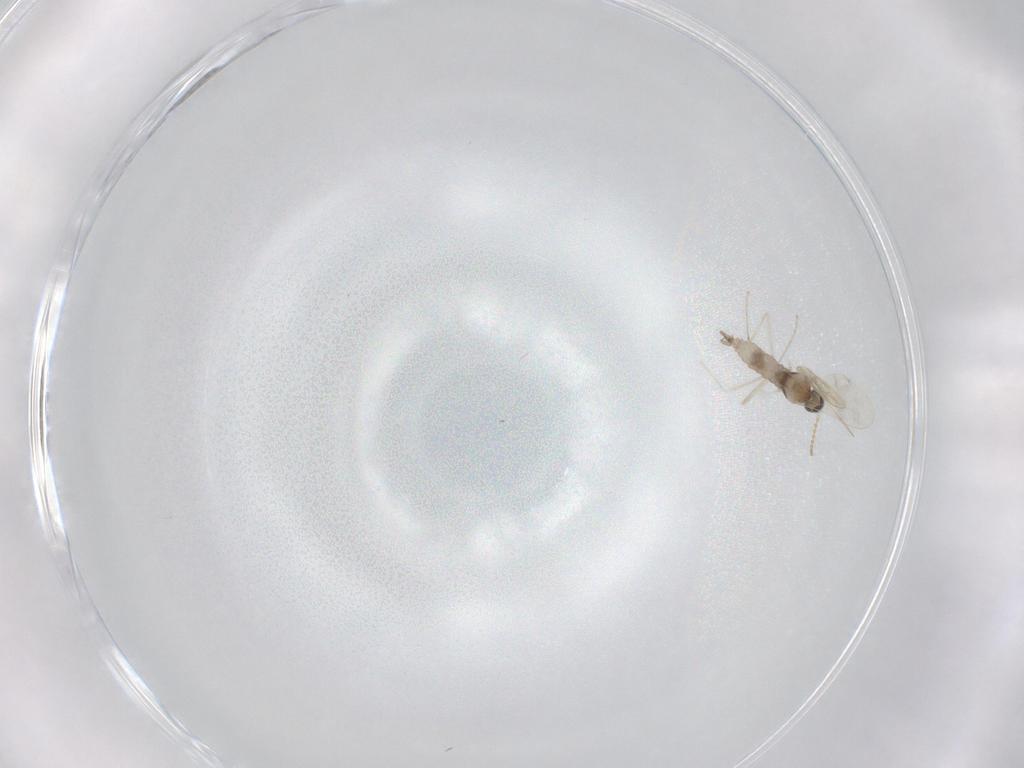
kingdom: Animalia
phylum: Arthropoda
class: Insecta
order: Diptera
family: Cecidomyiidae
